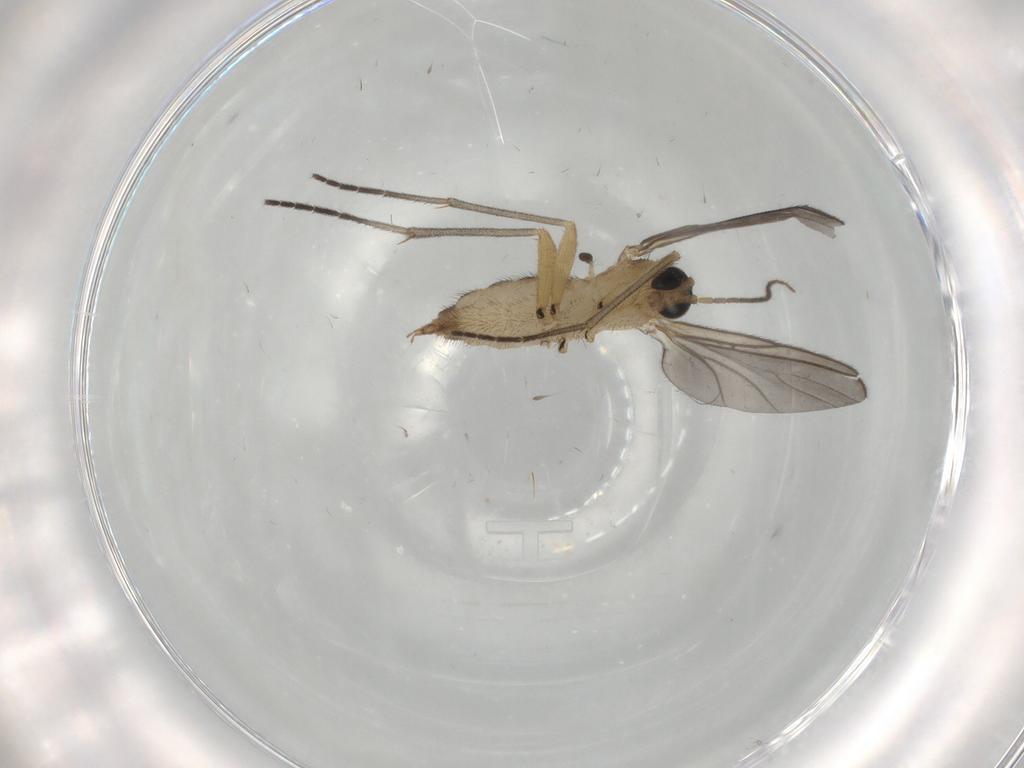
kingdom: Animalia
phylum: Arthropoda
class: Insecta
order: Diptera
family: Sciaridae
